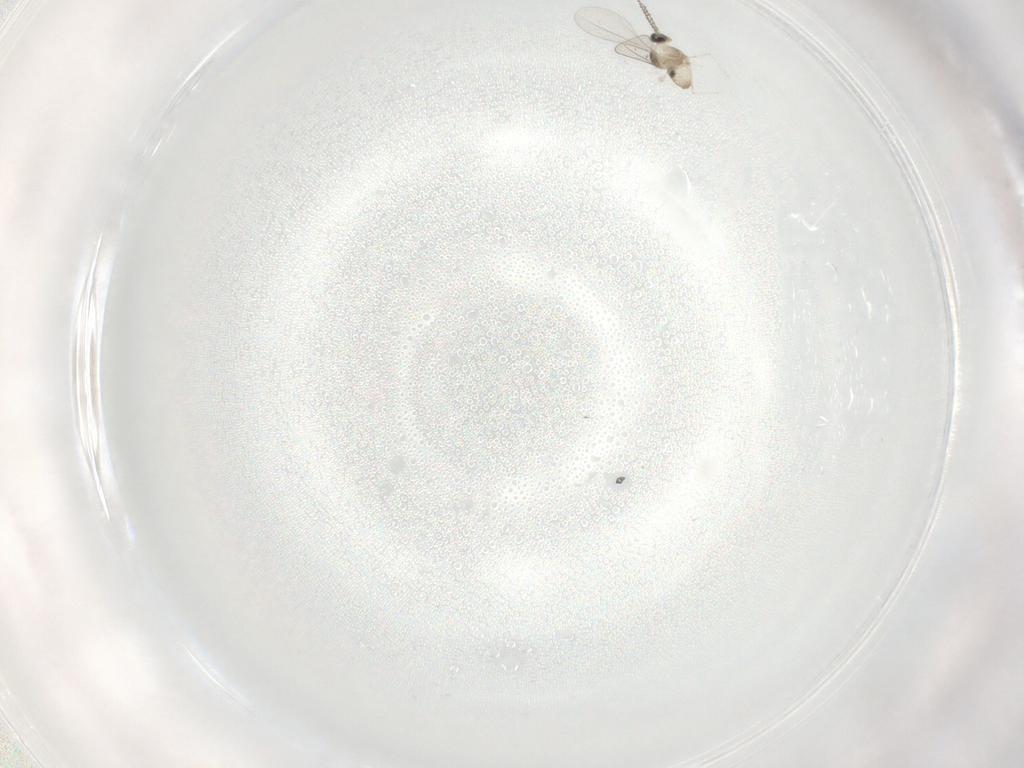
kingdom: Animalia
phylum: Arthropoda
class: Insecta
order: Diptera
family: Cecidomyiidae
